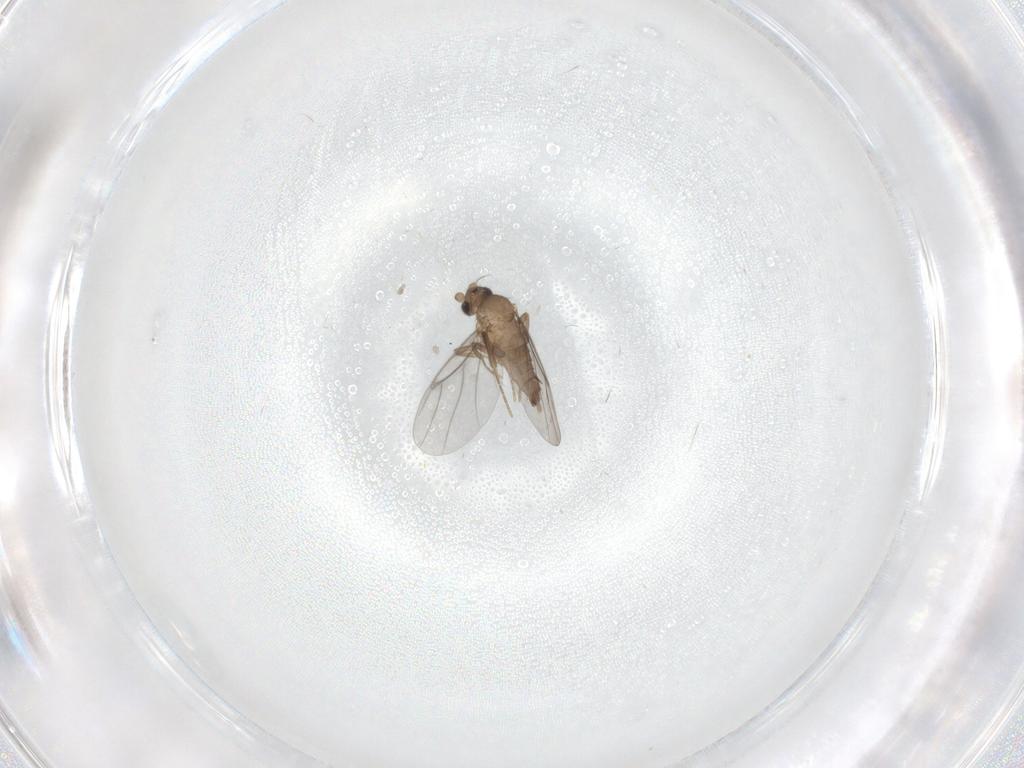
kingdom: Animalia
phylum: Arthropoda
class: Insecta
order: Diptera
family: Cecidomyiidae
